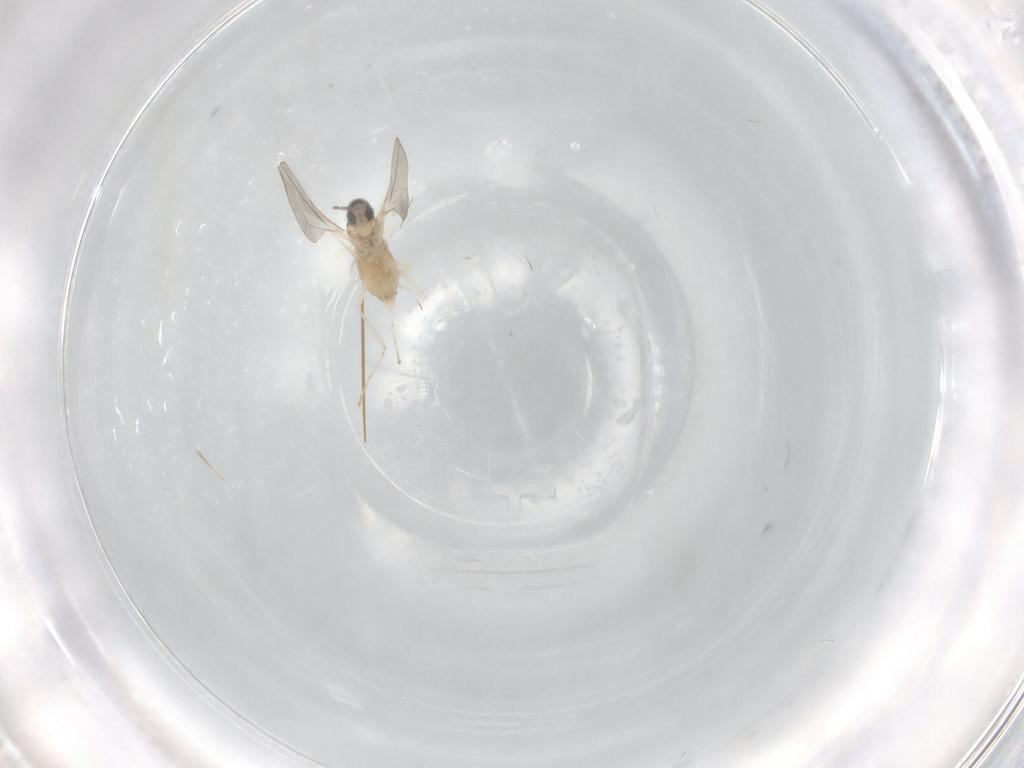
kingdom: Animalia
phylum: Arthropoda
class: Insecta
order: Diptera
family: Cecidomyiidae
